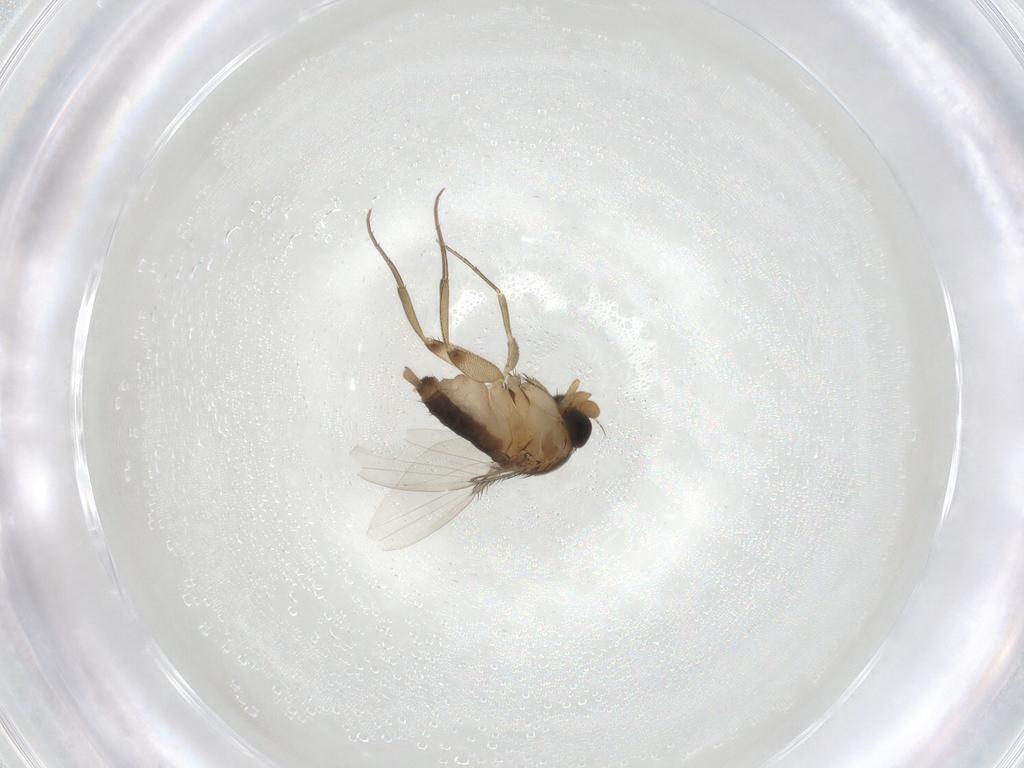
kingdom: Animalia
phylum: Arthropoda
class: Insecta
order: Diptera
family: Phoridae
